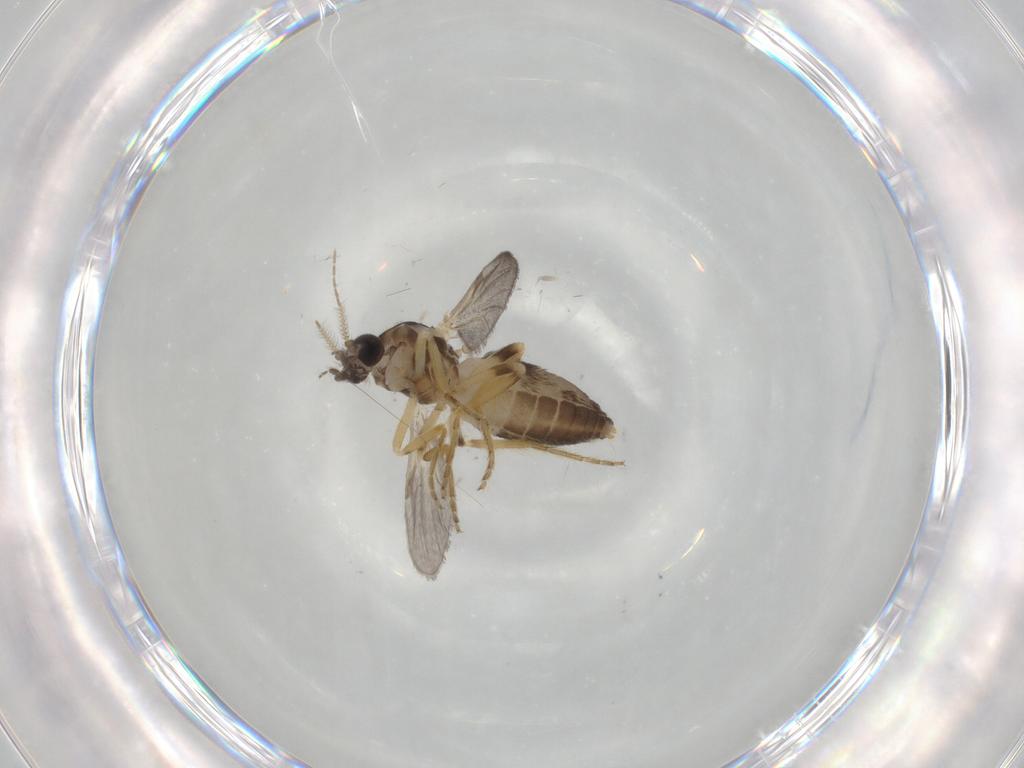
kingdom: Animalia
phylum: Arthropoda
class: Insecta
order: Diptera
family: Ceratopogonidae
